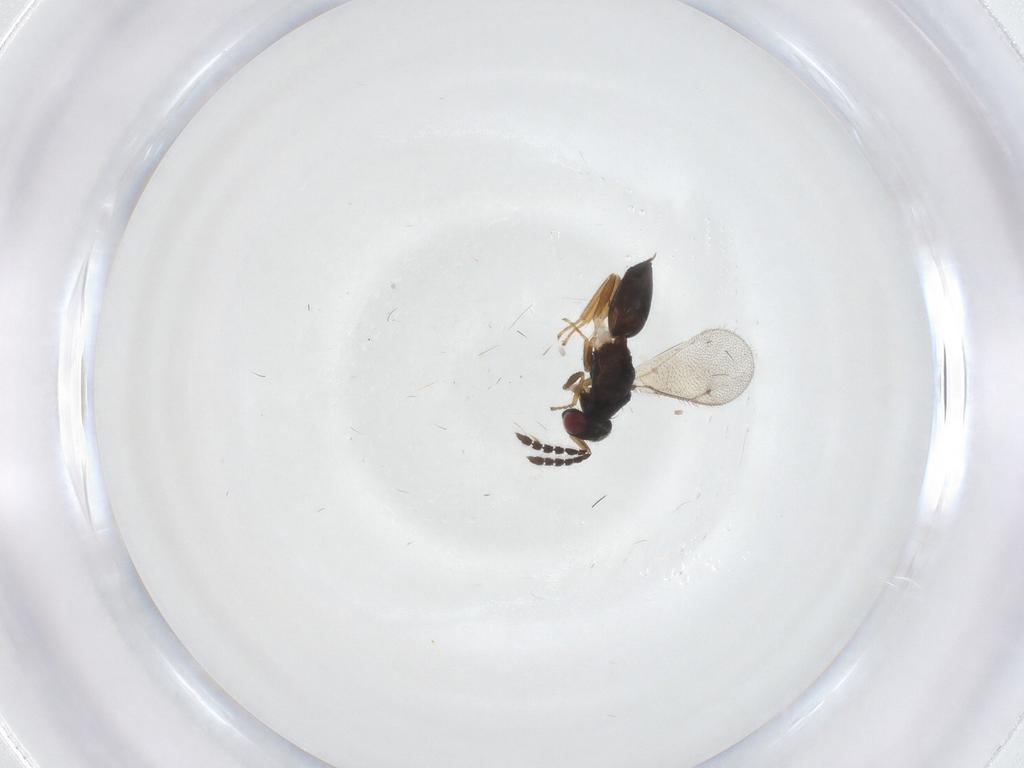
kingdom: Animalia
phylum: Arthropoda
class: Insecta
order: Hymenoptera
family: Eulophidae
